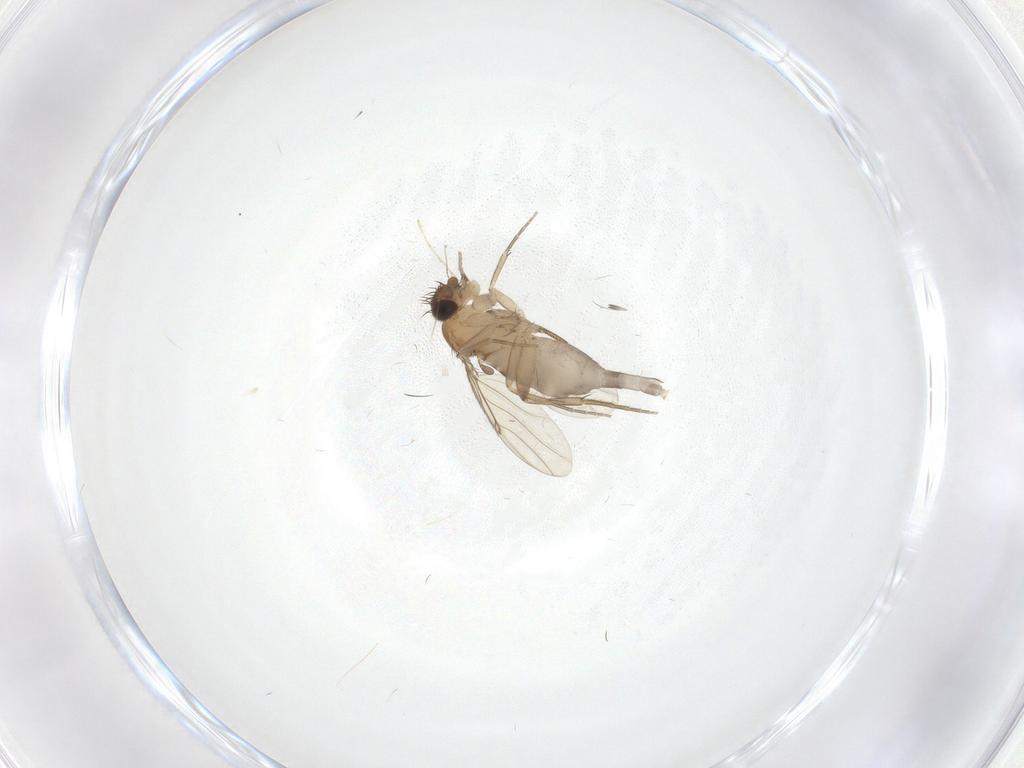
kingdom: Animalia
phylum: Arthropoda
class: Insecta
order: Diptera
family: Phoridae
